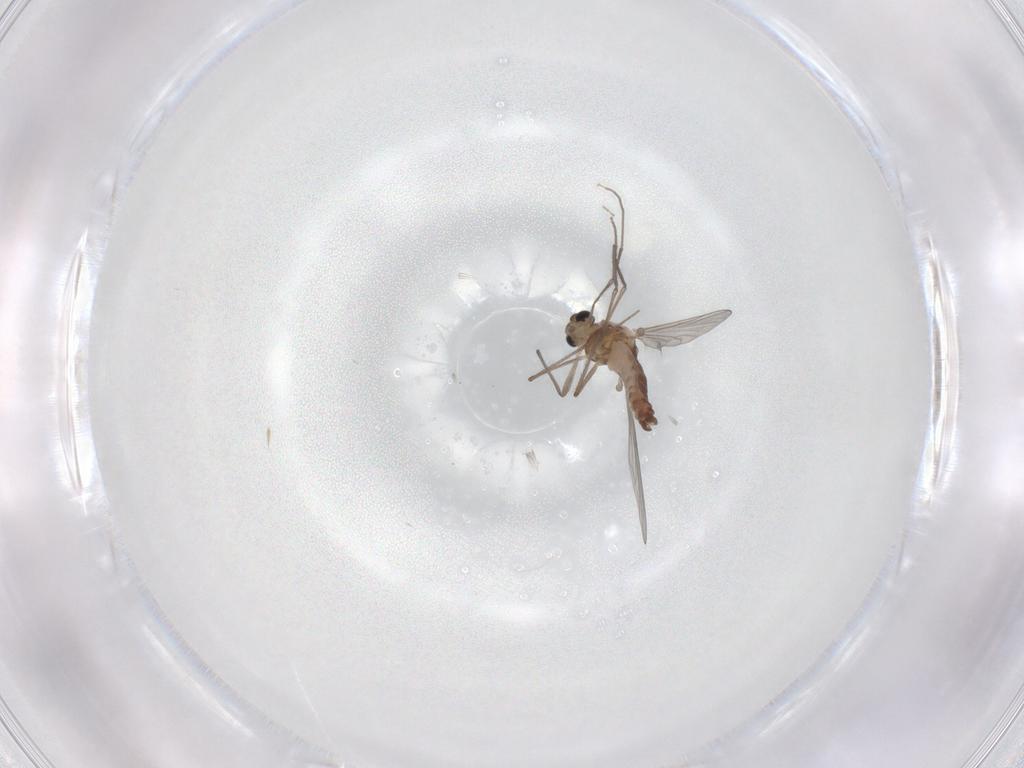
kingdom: Animalia
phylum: Arthropoda
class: Insecta
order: Diptera
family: Chironomidae
